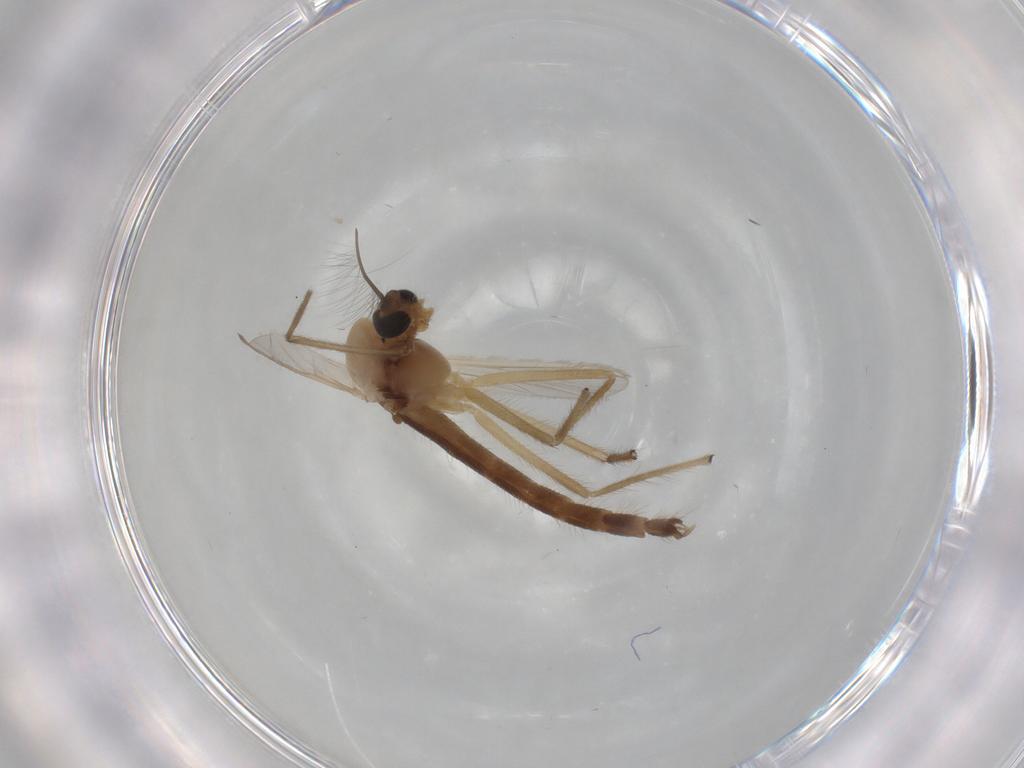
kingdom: Animalia
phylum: Arthropoda
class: Insecta
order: Diptera
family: Chironomidae
